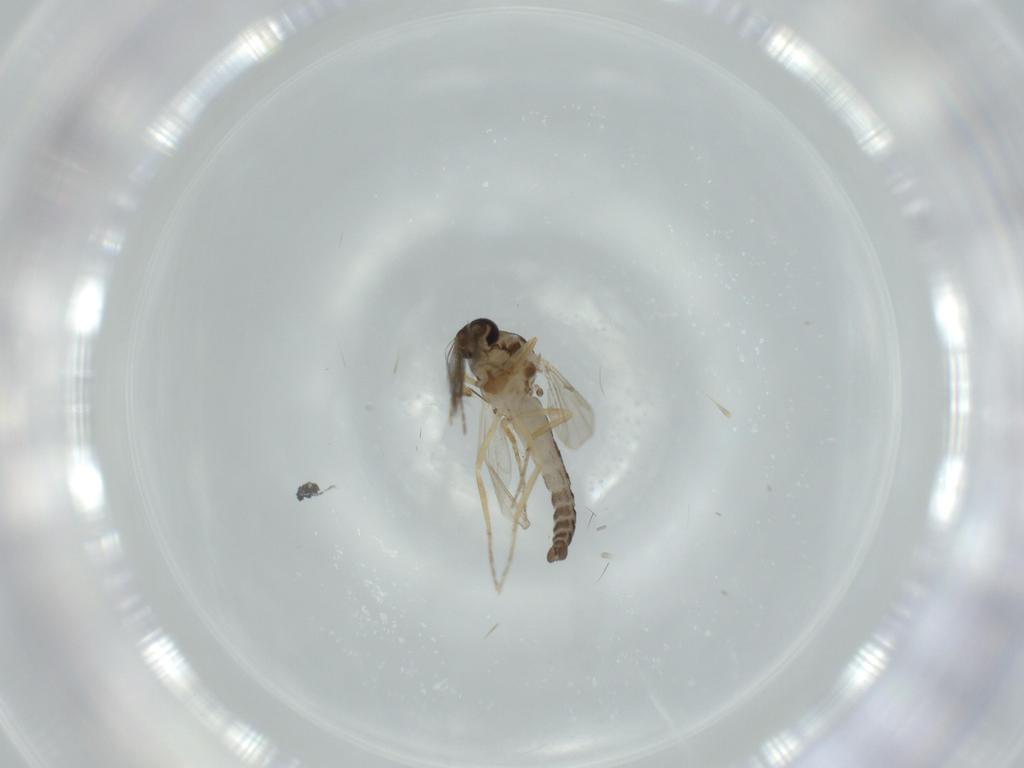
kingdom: Animalia
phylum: Arthropoda
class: Insecta
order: Diptera
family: Ceratopogonidae
